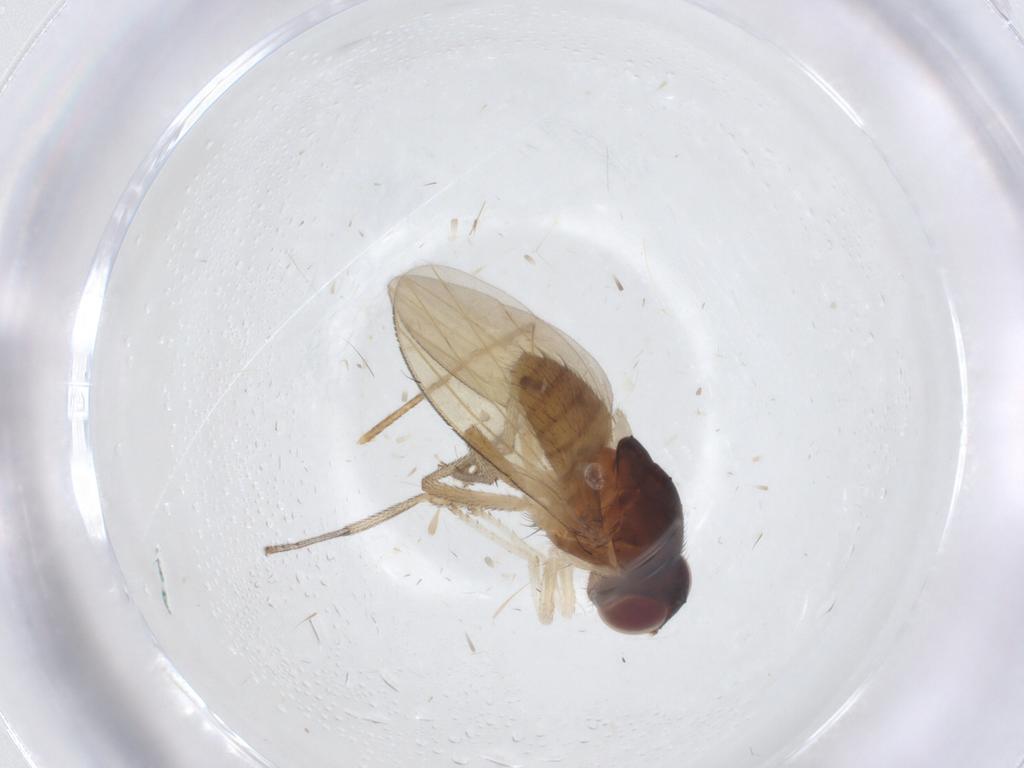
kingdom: Animalia
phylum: Arthropoda
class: Insecta
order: Diptera
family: Lauxaniidae
